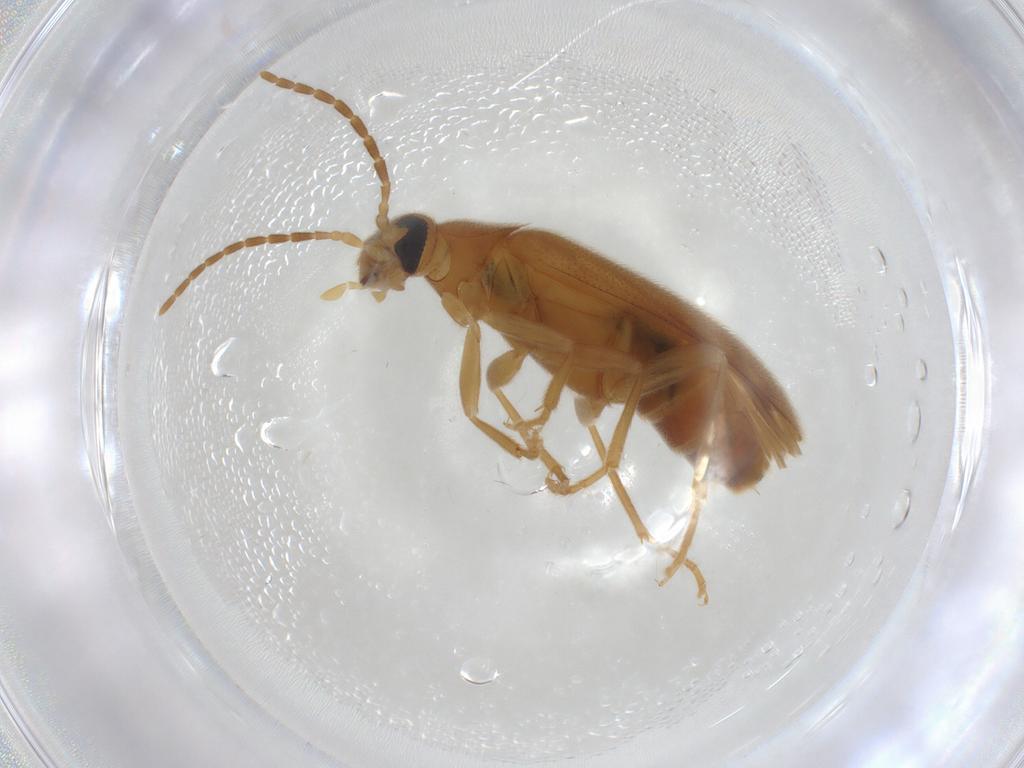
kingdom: Animalia
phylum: Arthropoda
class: Insecta
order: Coleoptera
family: Scraptiidae
